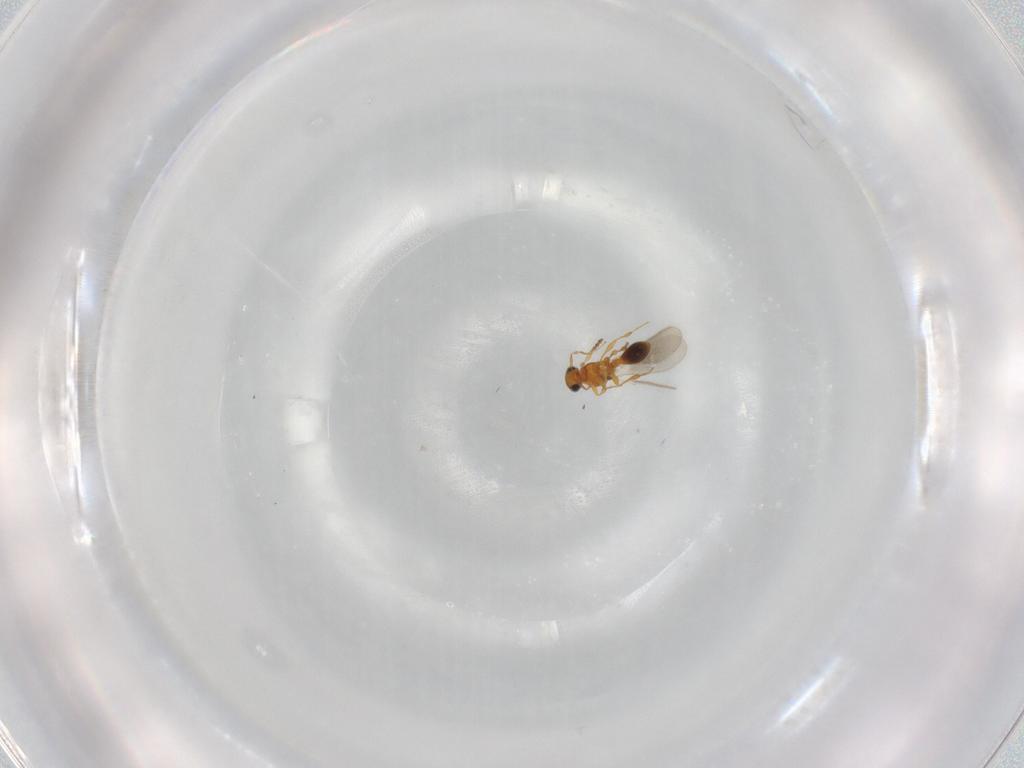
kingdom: Animalia
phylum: Arthropoda
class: Insecta
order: Hymenoptera
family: Platygastridae
